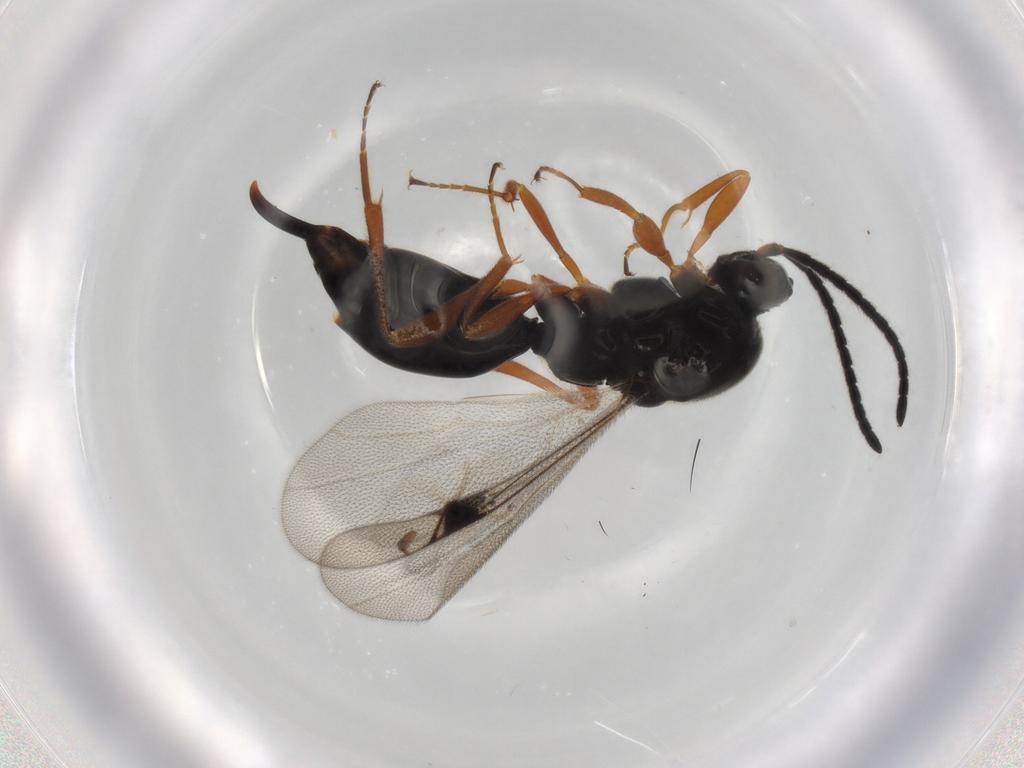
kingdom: Animalia
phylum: Arthropoda
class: Insecta
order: Hymenoptera
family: Proctotrupidae
